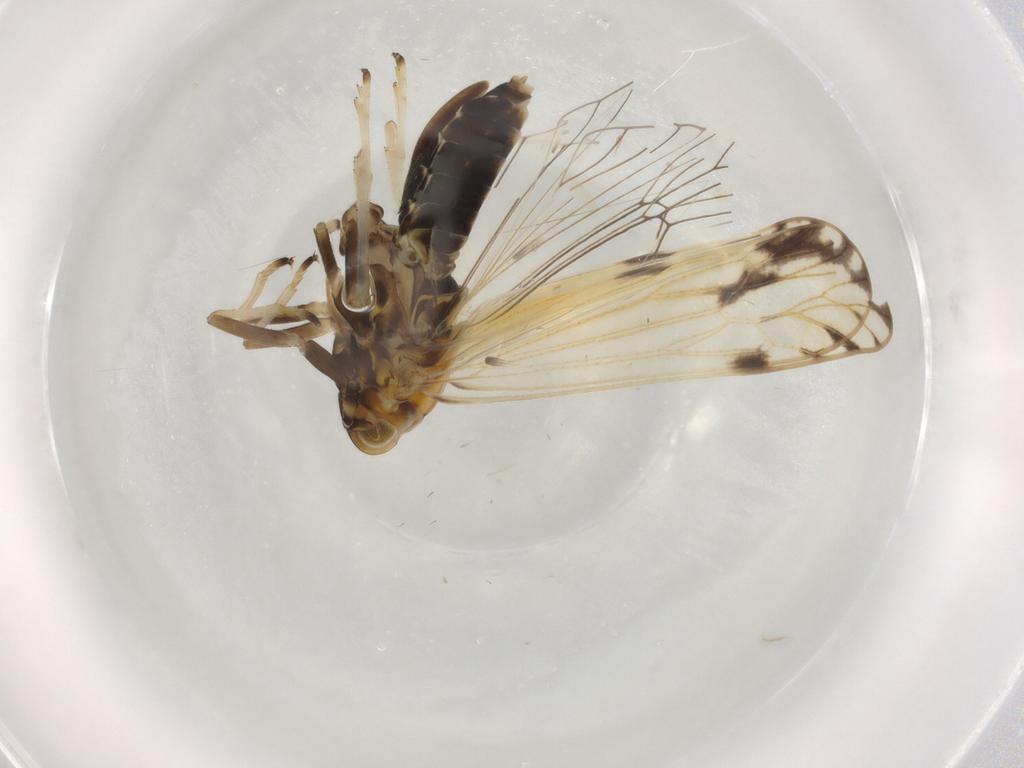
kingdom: Animalia
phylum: Arthropoda
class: Insecta
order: Hemiptera
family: Delphacidae
